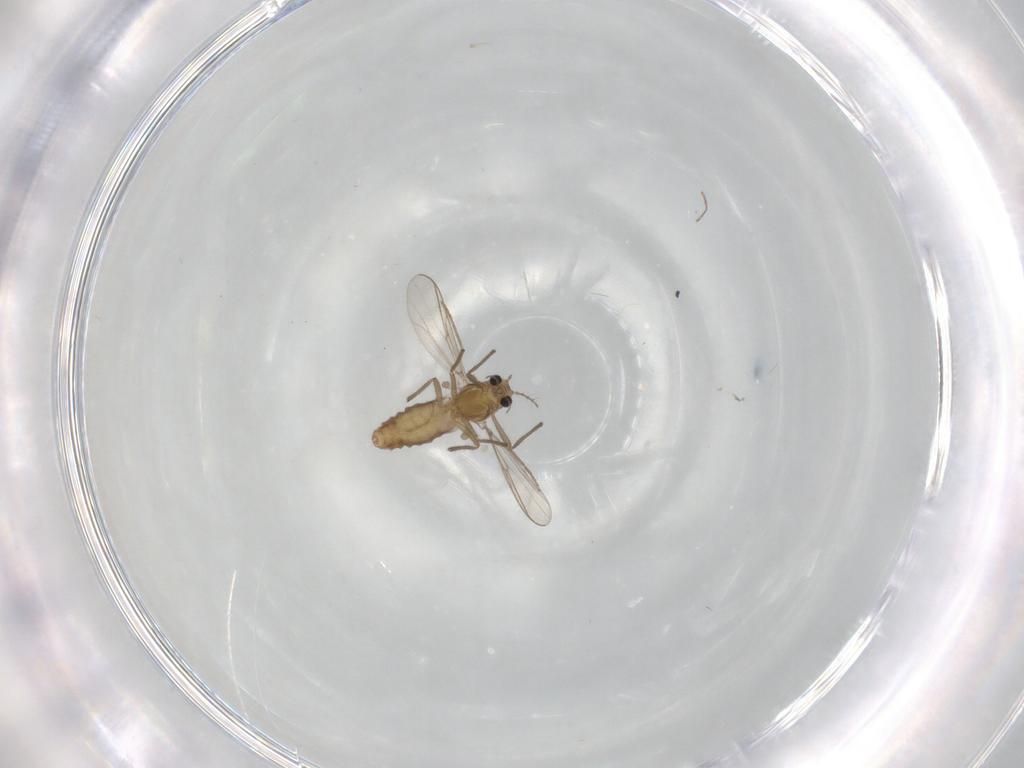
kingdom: Animalia
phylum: Arthropoda
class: Insecta
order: Diptera
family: Chironomidae
